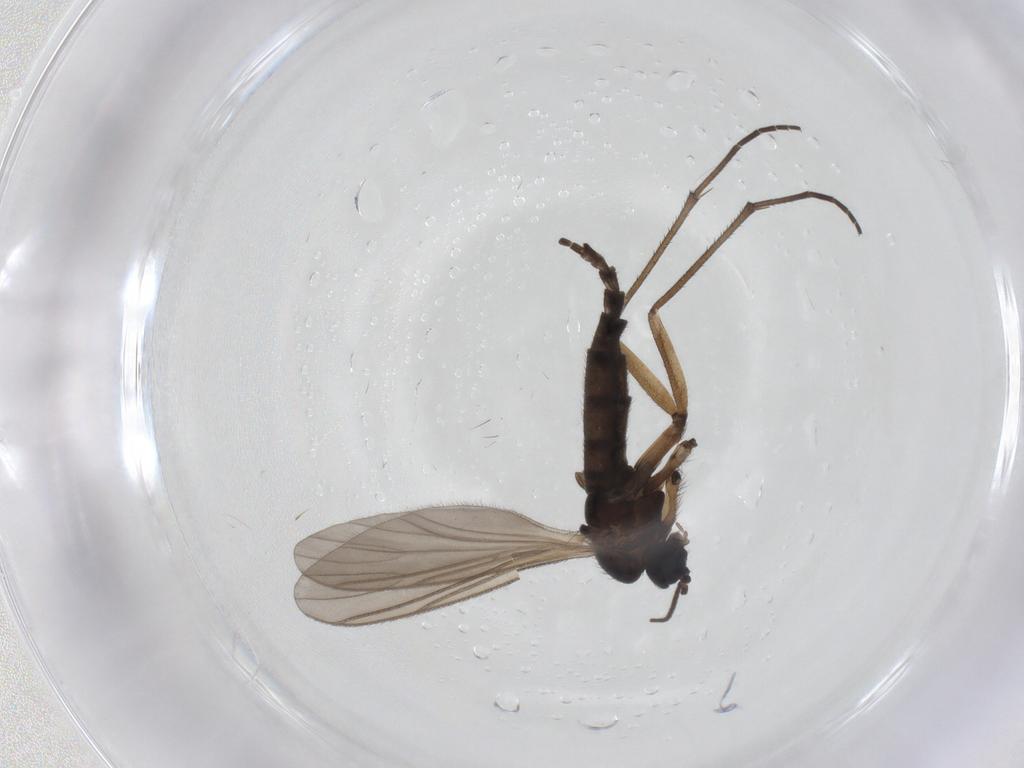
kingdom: Animalia
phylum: Arthropoda
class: Insecta
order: Diptera
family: Sciaridae
